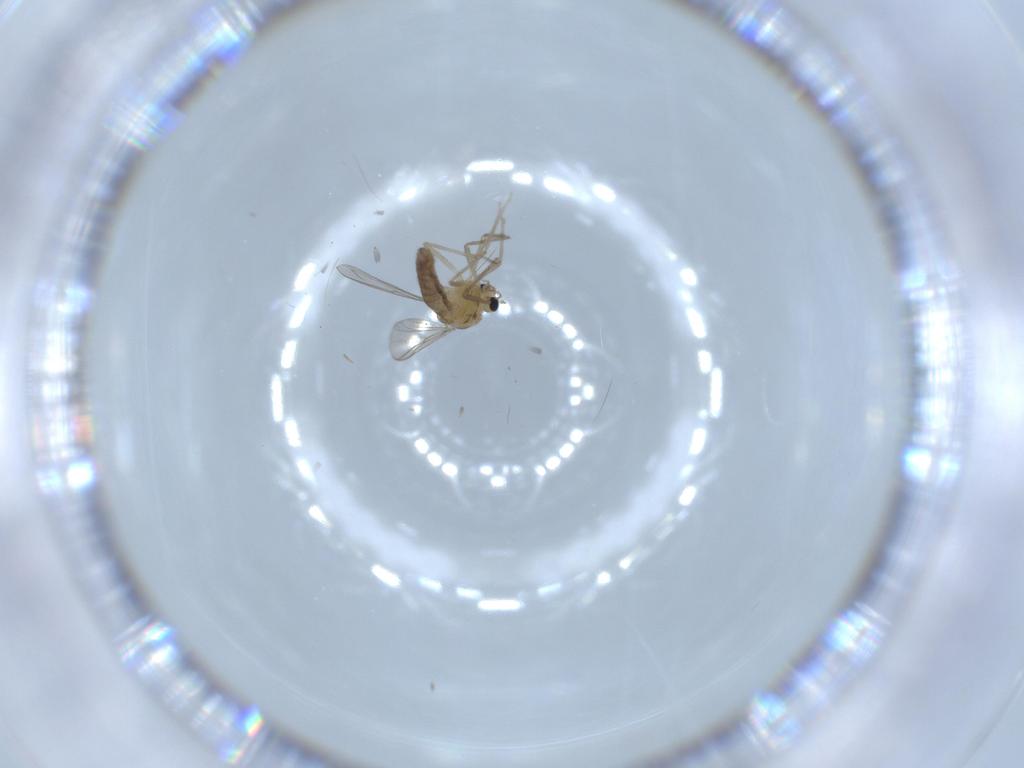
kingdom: Animalia
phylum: Arthropoda
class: Insecta
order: Diptera
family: Chironomidae
